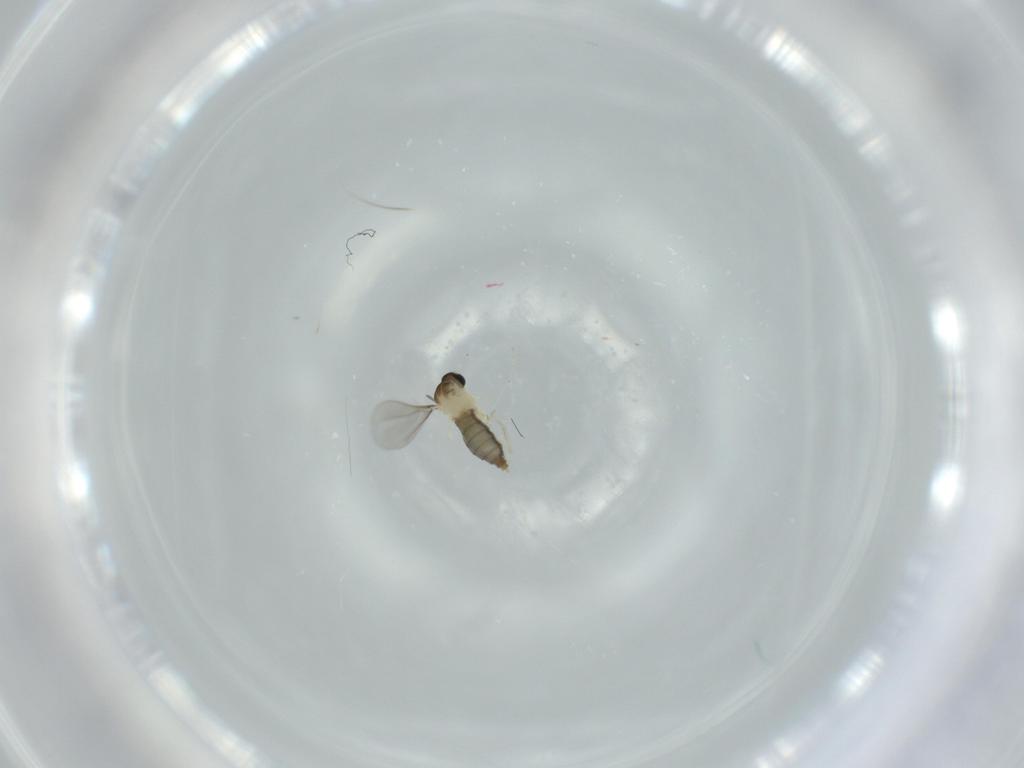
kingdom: Animalia
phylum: Arthropoda
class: Insecta
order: Diptera
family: Cecidomyiidae
